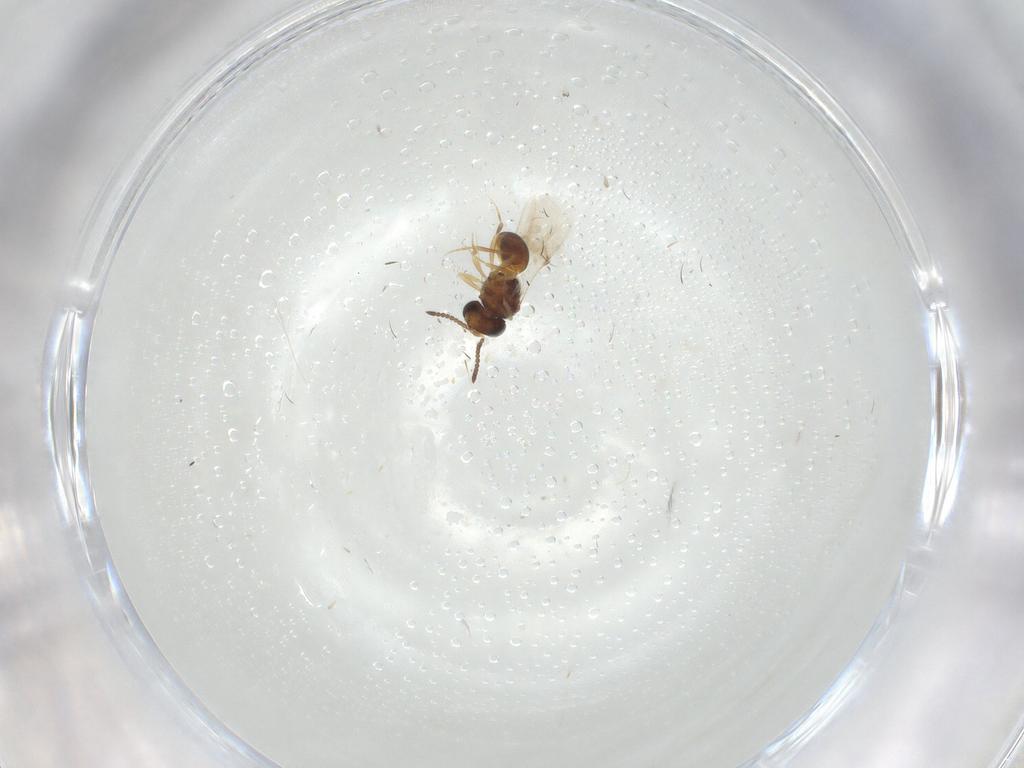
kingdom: Animalia
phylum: Arthropoda
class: Insecta
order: Hymenoptera
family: Scelionidae
